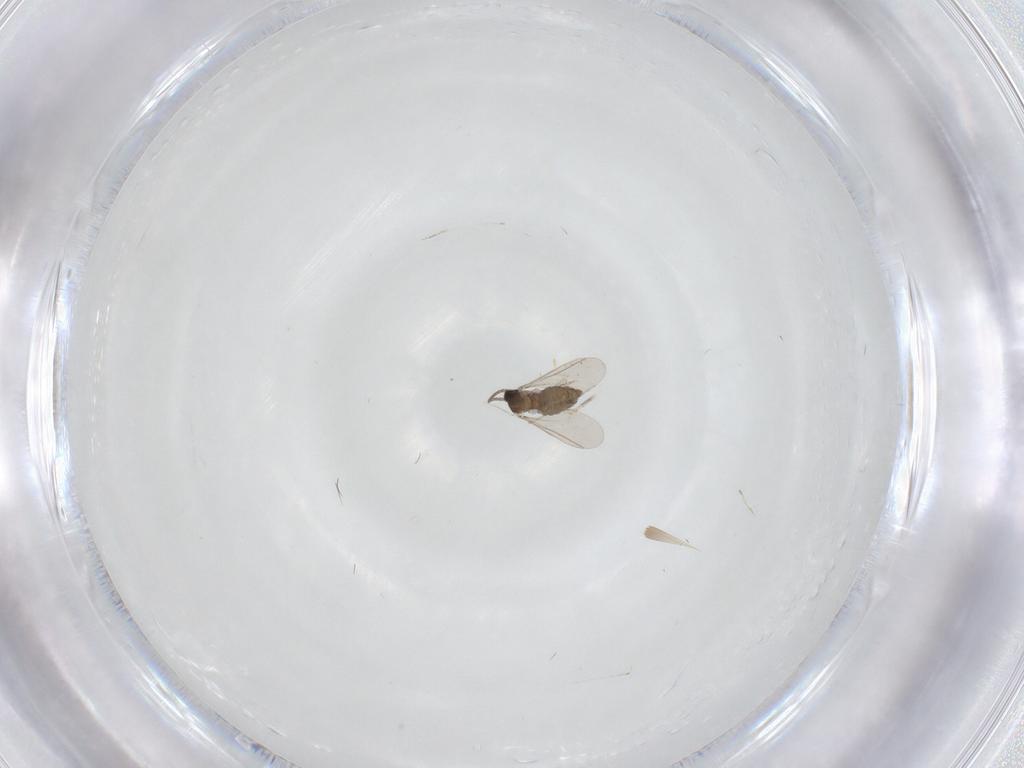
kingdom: Animalia
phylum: Arthropoda
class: Insecta
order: Diptera
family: Cecidomyiidae
